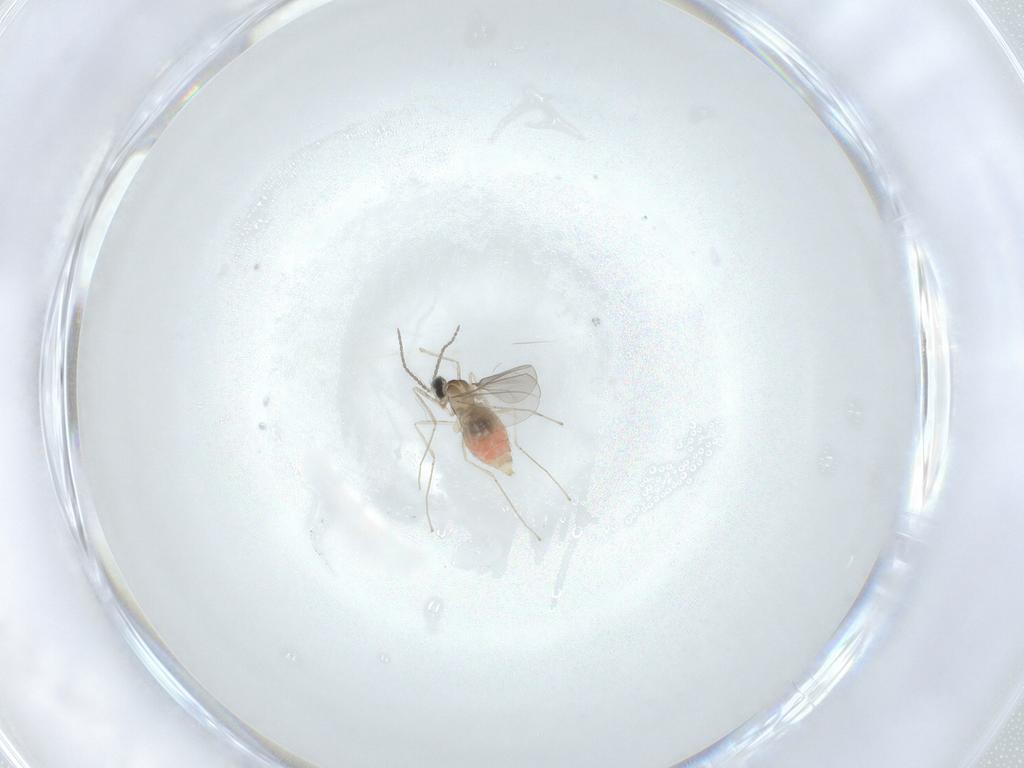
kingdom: Animalia
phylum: Arthropoda
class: Insecta
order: Diptera
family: Cecidomyiidae
